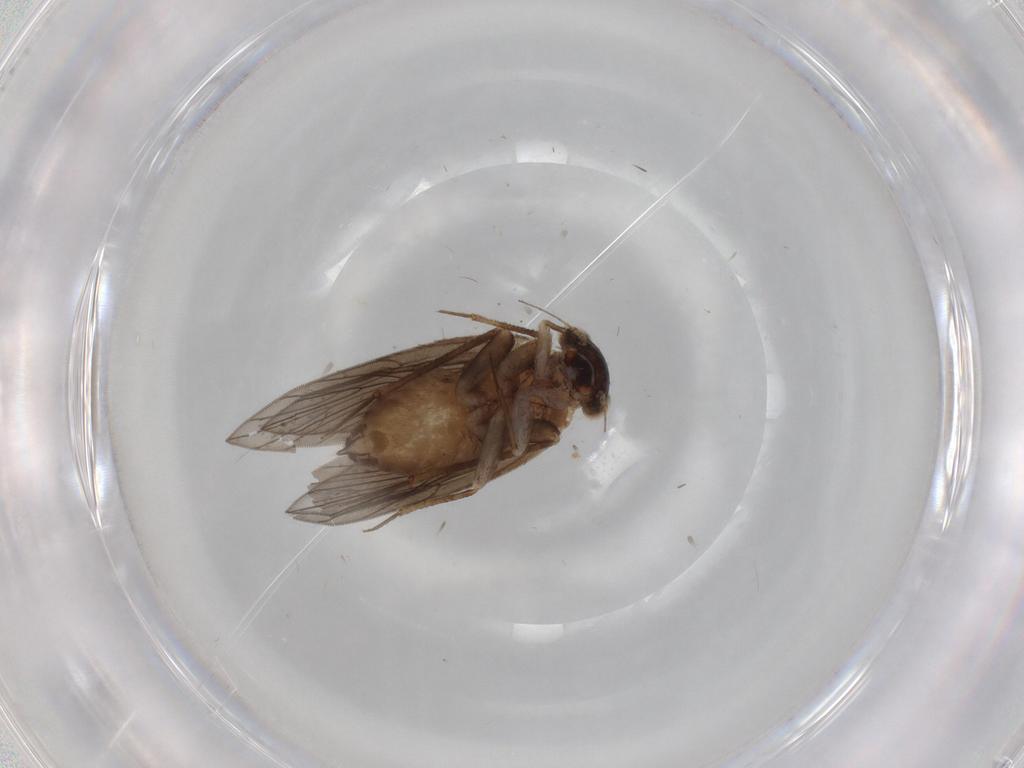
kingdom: Animalia
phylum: Arthropoda
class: Insecta
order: Psocodea
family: Lepidopsocidae
